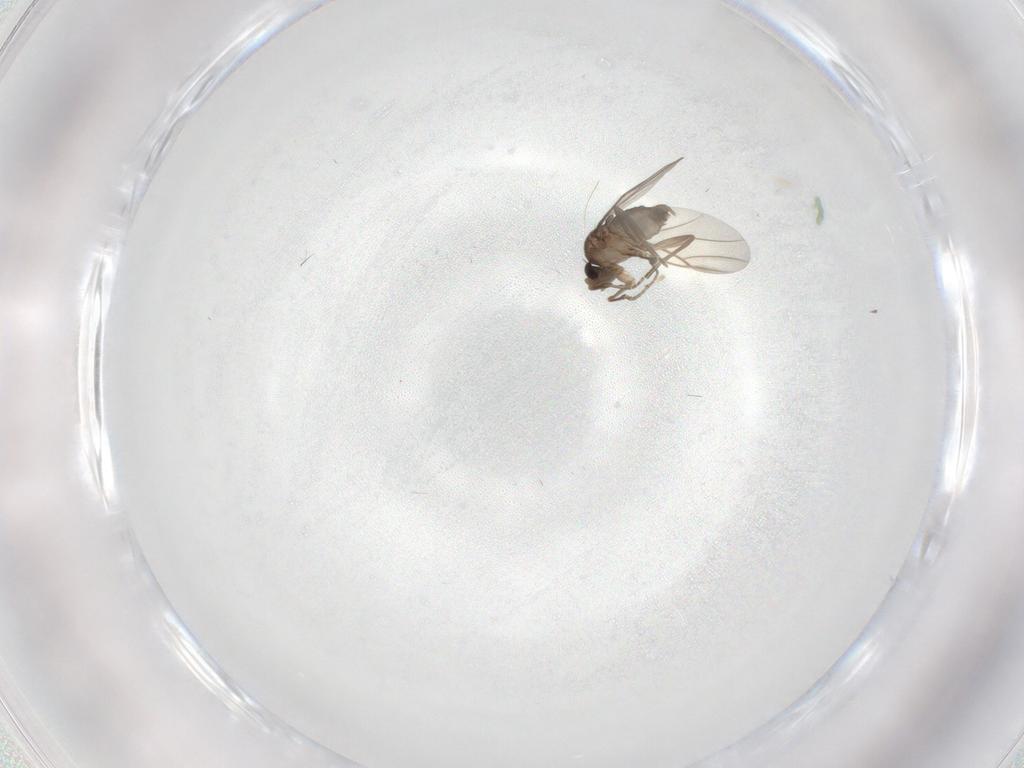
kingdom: Animalia
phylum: Arthropoda
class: Insecta
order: Diptera
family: Phoridae
